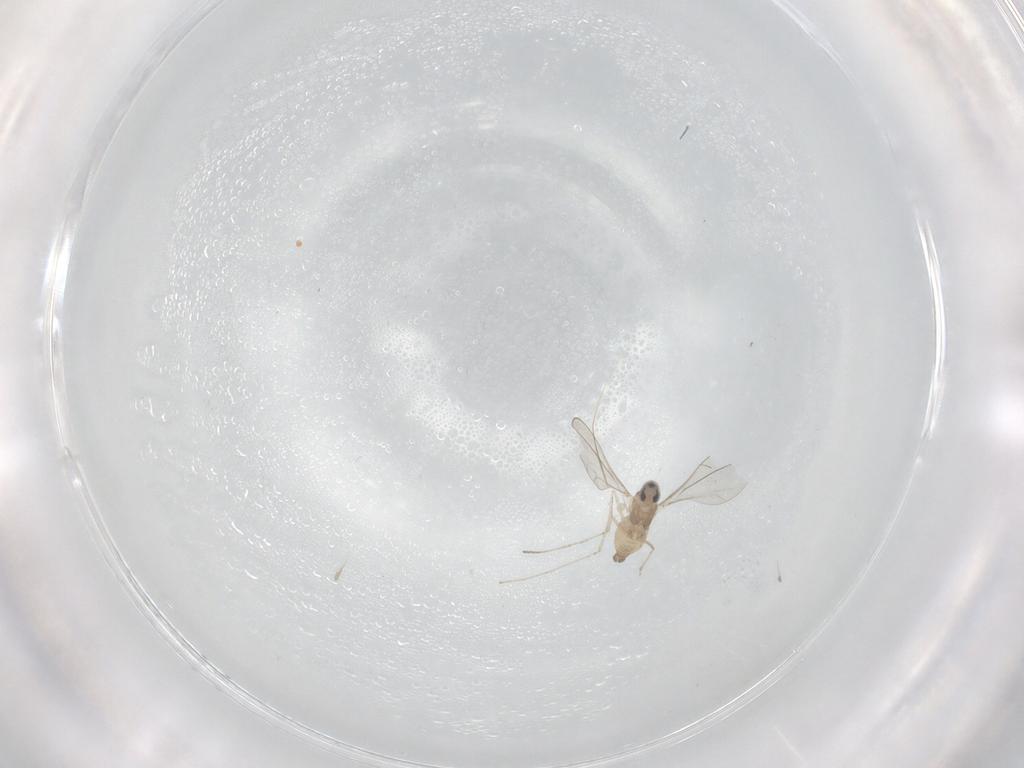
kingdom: Animalia
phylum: Arthropoda
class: Insecta
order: Diptera
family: Cecidomyiidae
